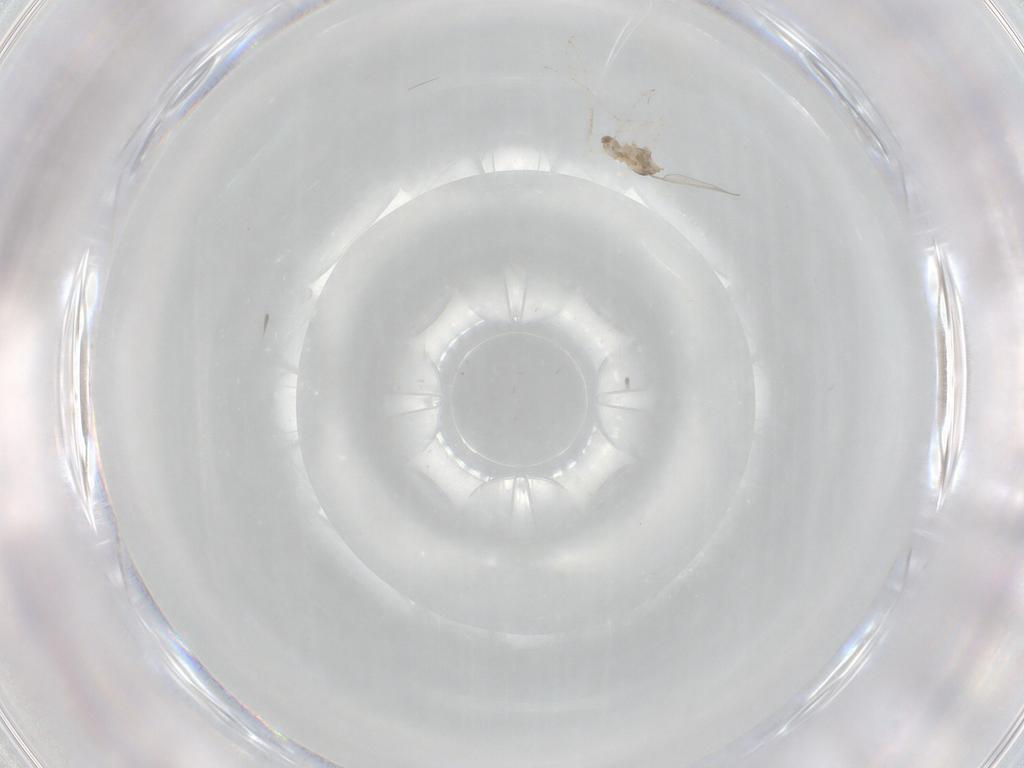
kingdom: Animalia
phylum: Arthropoda
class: Insecta
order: Diptera
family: Cecidomyiidae
